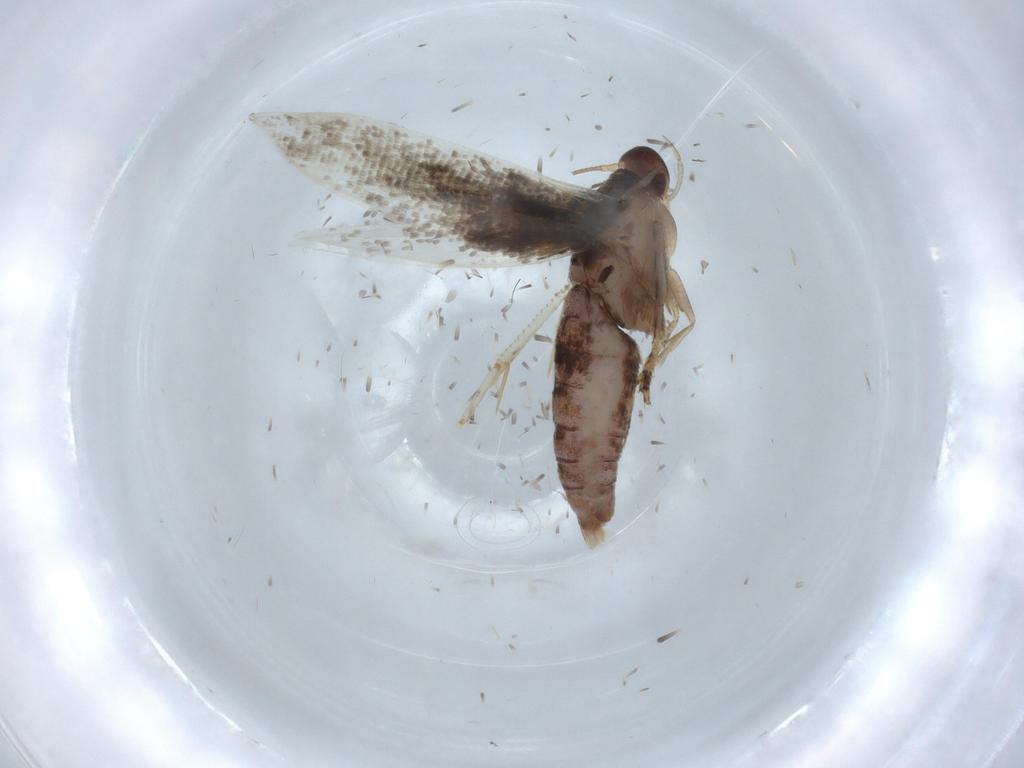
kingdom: Animalia
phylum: Arthropoda
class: Insecta
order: Lepidoptera
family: Momphidae
